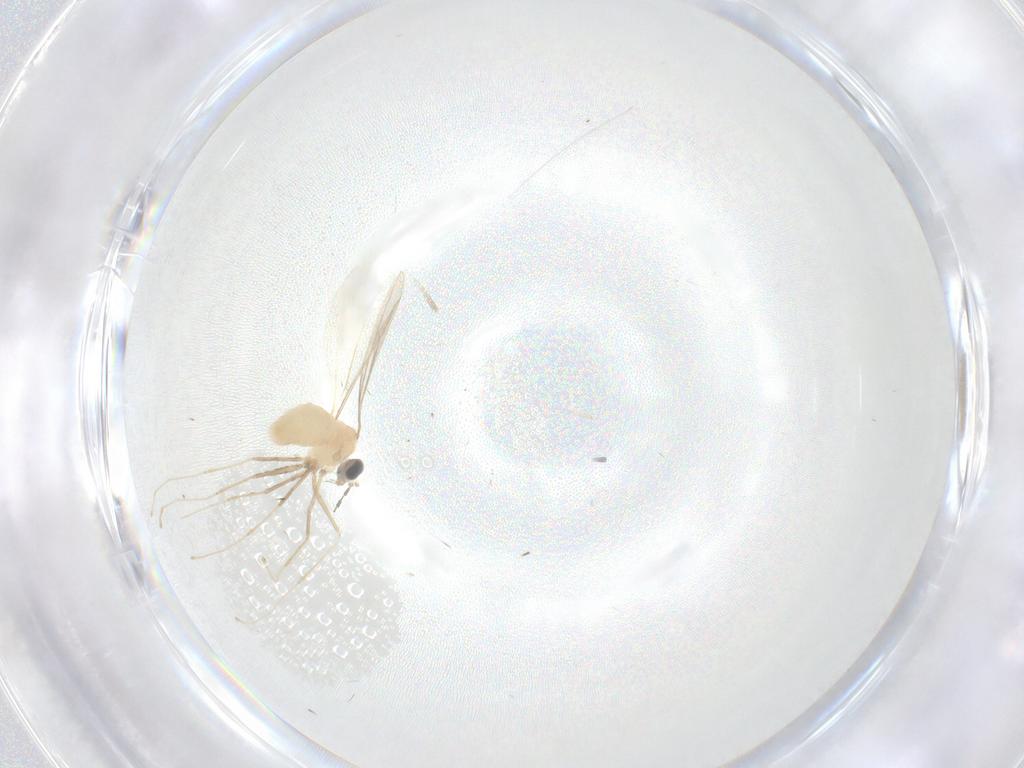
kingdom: Animalia
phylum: Arthropoda
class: Insecta
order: Diptera
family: Cecidomyiidae
